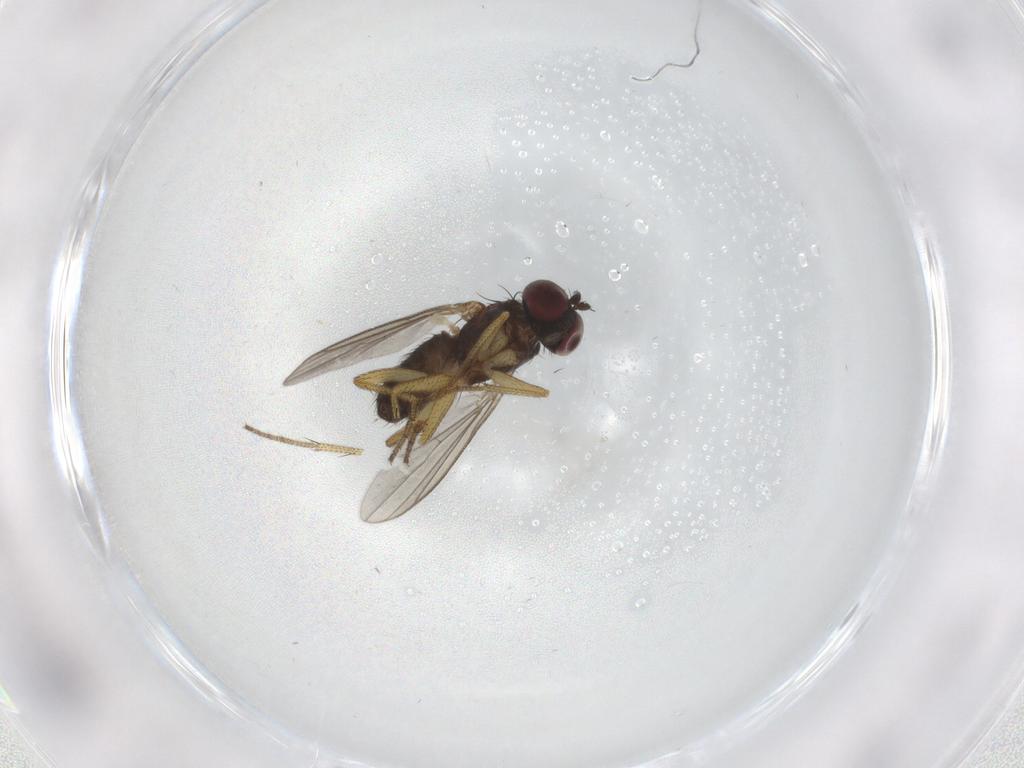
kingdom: Animalia
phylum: Arthropoda
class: Insecta
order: Diptera
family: Dolichopodidae
